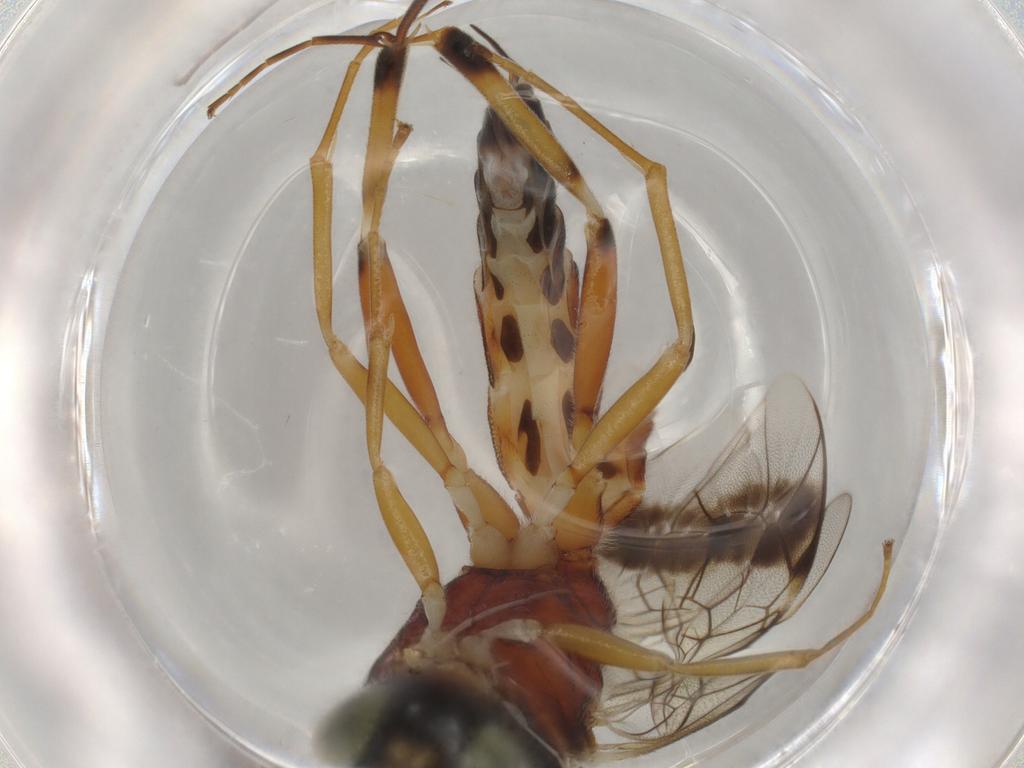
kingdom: Animalia
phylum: Arthropoda
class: Insecta
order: Hymenoptera
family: Ichneumonidae
